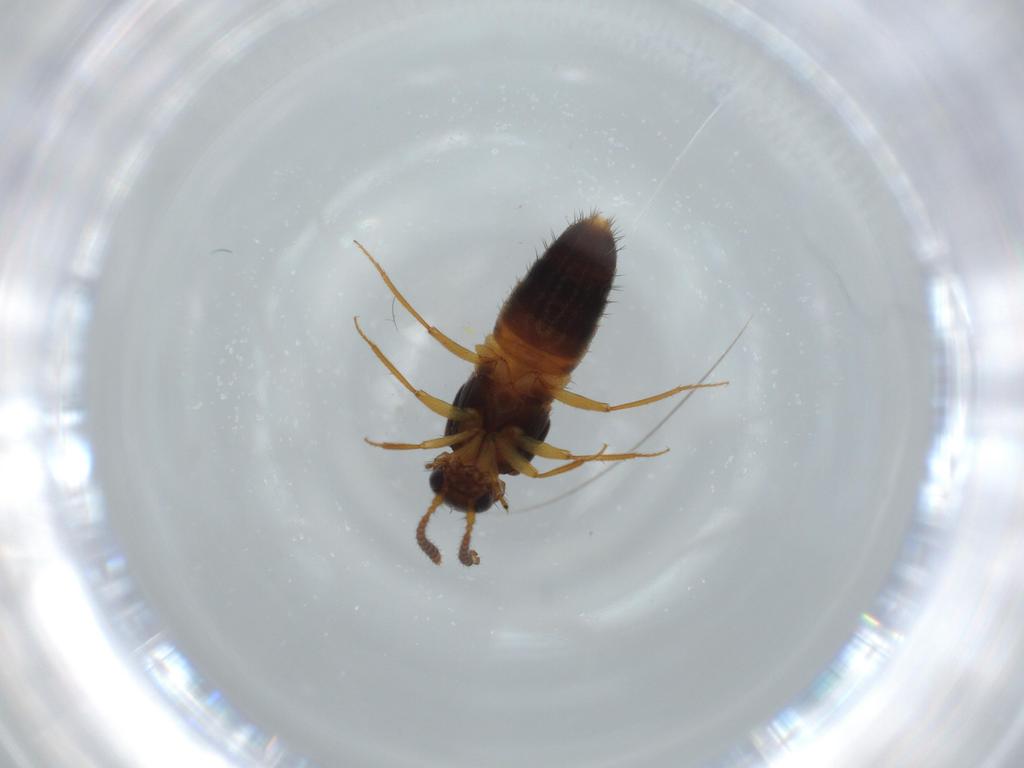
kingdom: Animalia
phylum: Arthropoda
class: Insecta
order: Coleoptera
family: Staphylinidae
